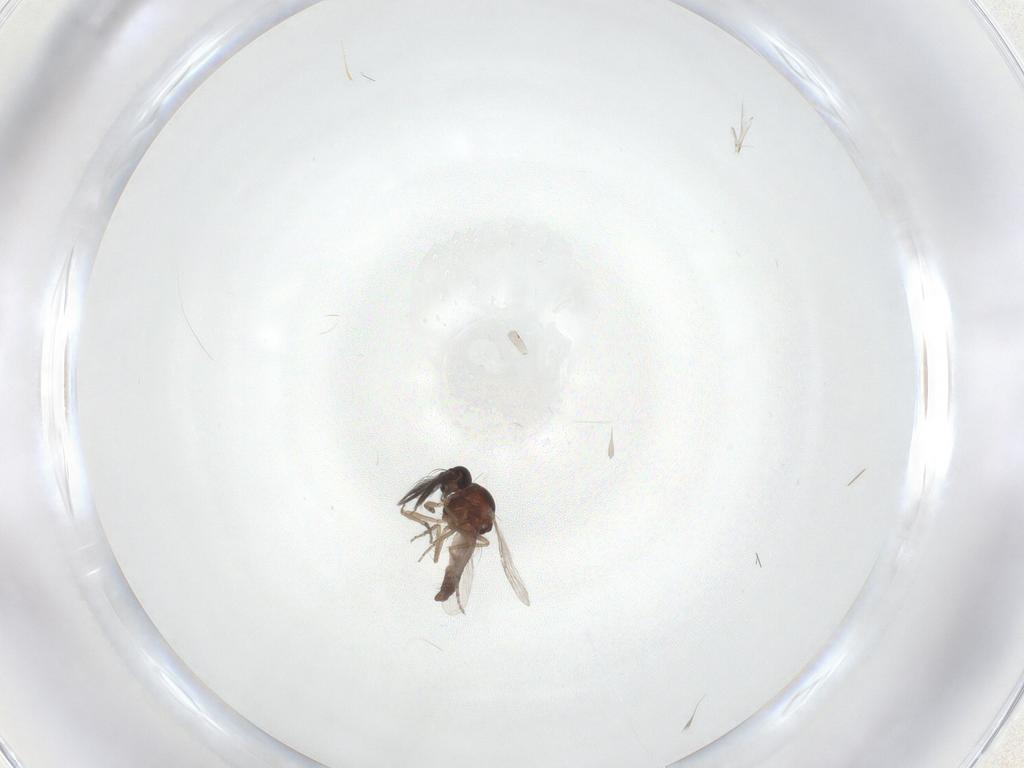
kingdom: Animalia
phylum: Arthropoda
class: Insecta
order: Diptera
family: Ceratopogonidae
